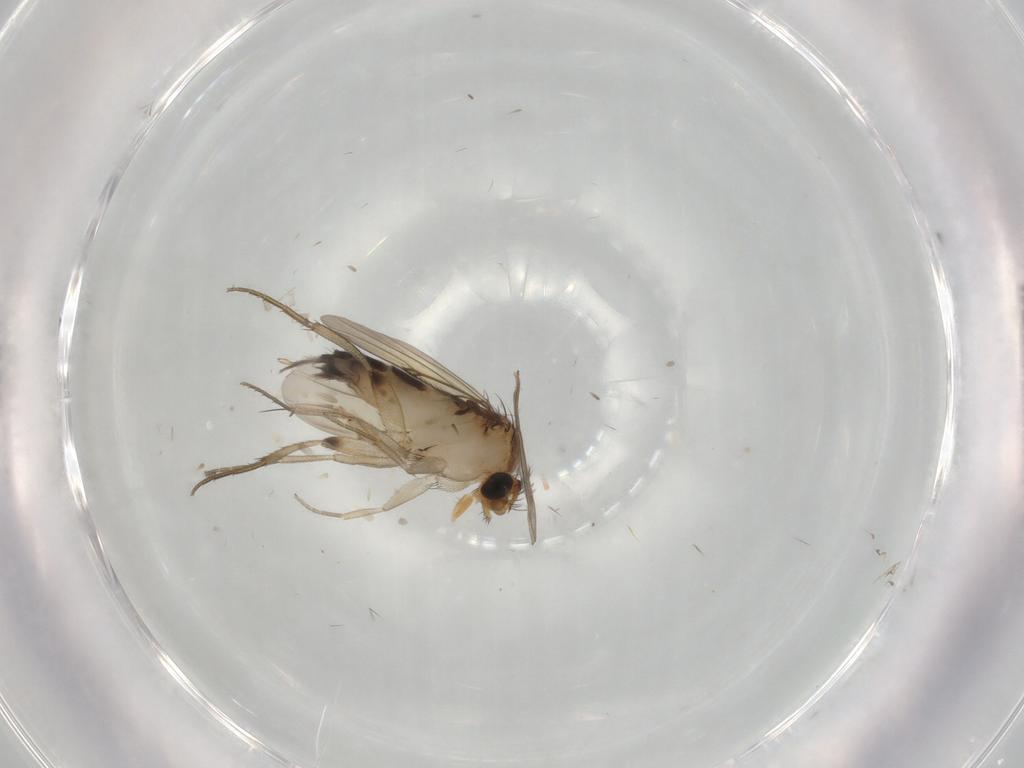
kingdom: Animalia
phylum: Arthropoda
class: Insecta
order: Diptera
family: Phoridae
